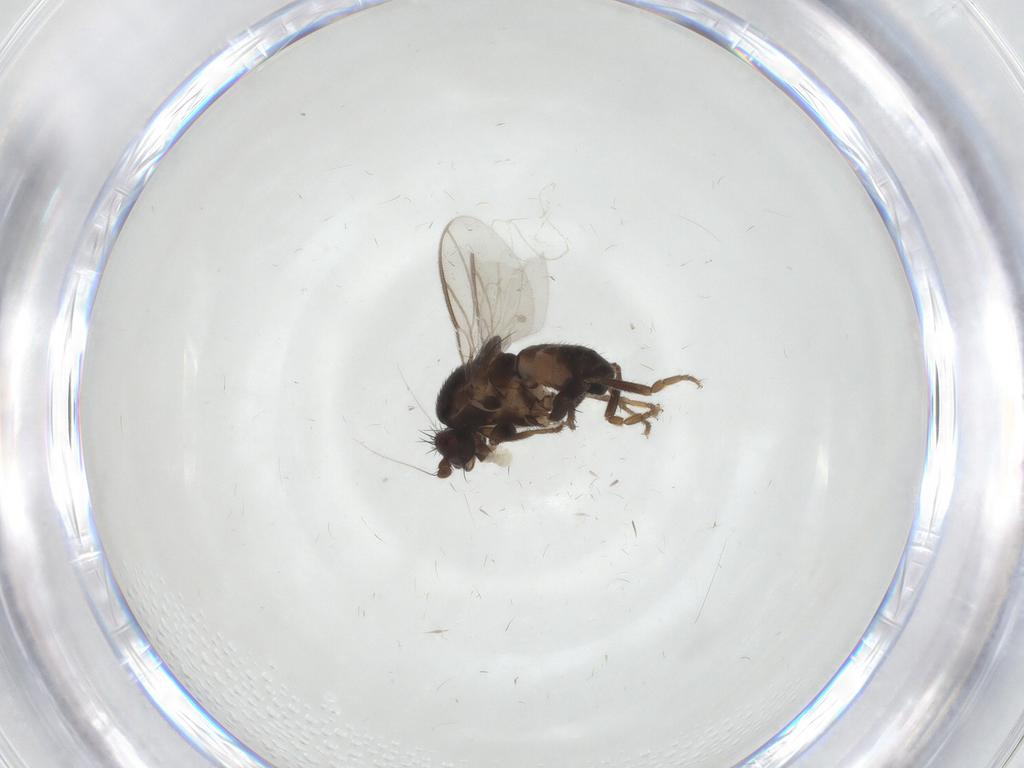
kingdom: Animalia
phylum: Arthropoda
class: Insecta
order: Diptera
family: Sphaeroceridae
